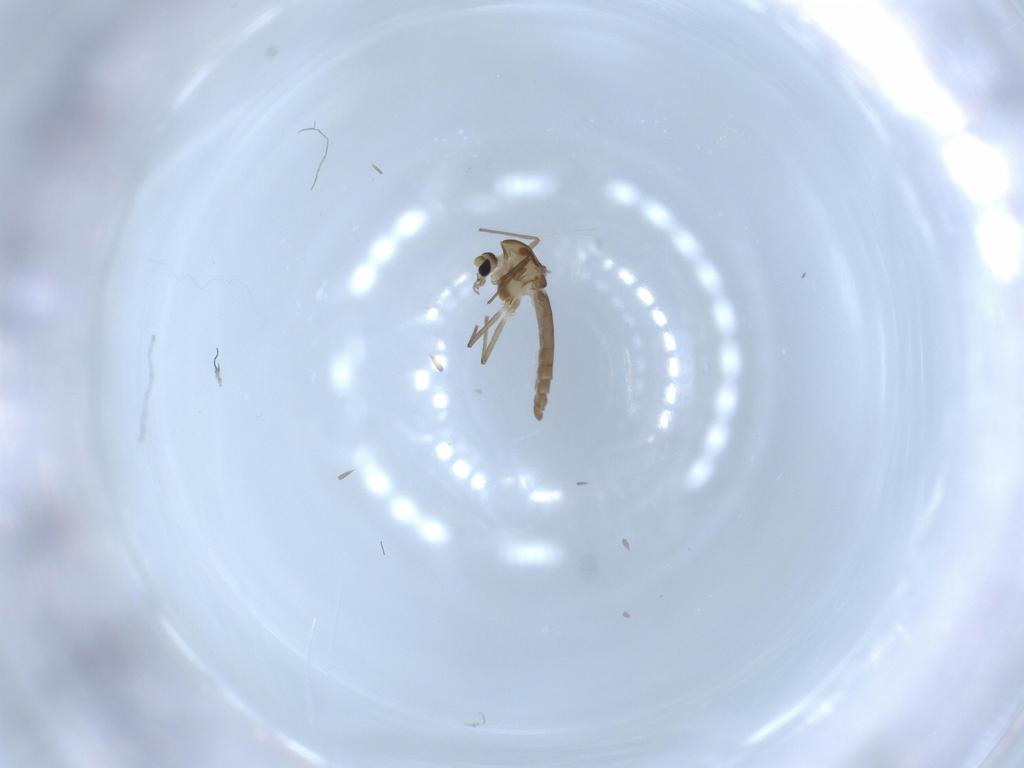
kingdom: Animalia
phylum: Arthropoda
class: Insecta
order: Diptera
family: Chironomidae
